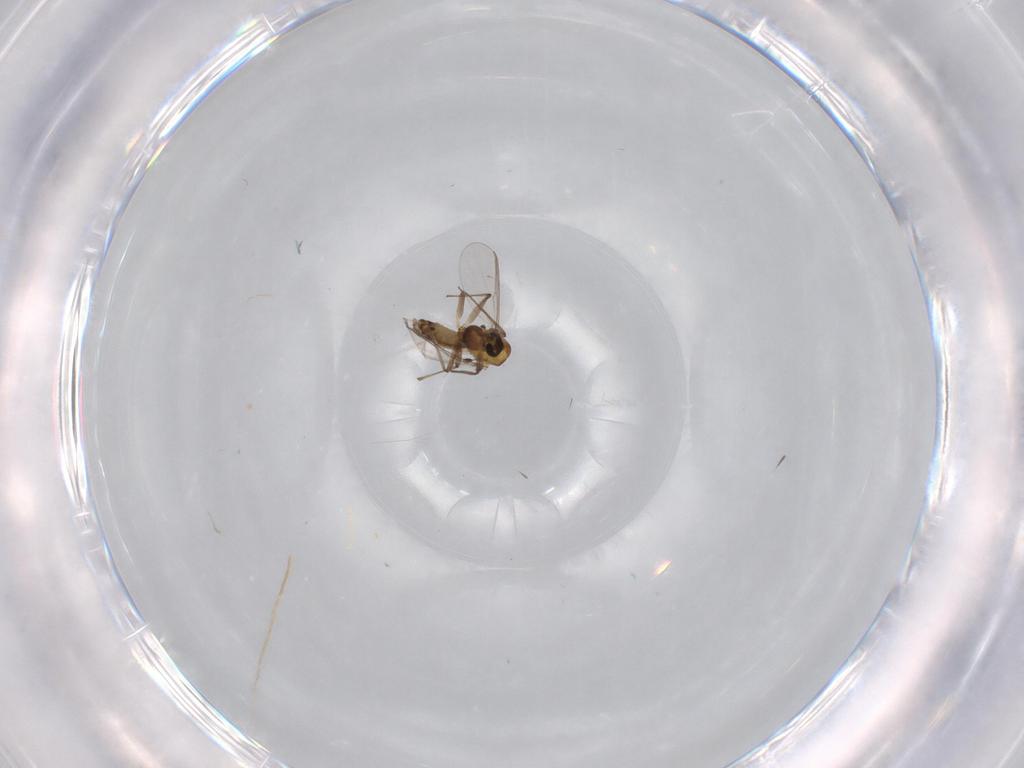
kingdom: Animalia
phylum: Arthropoda
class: Insecta
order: Diptera
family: Chironomidae
